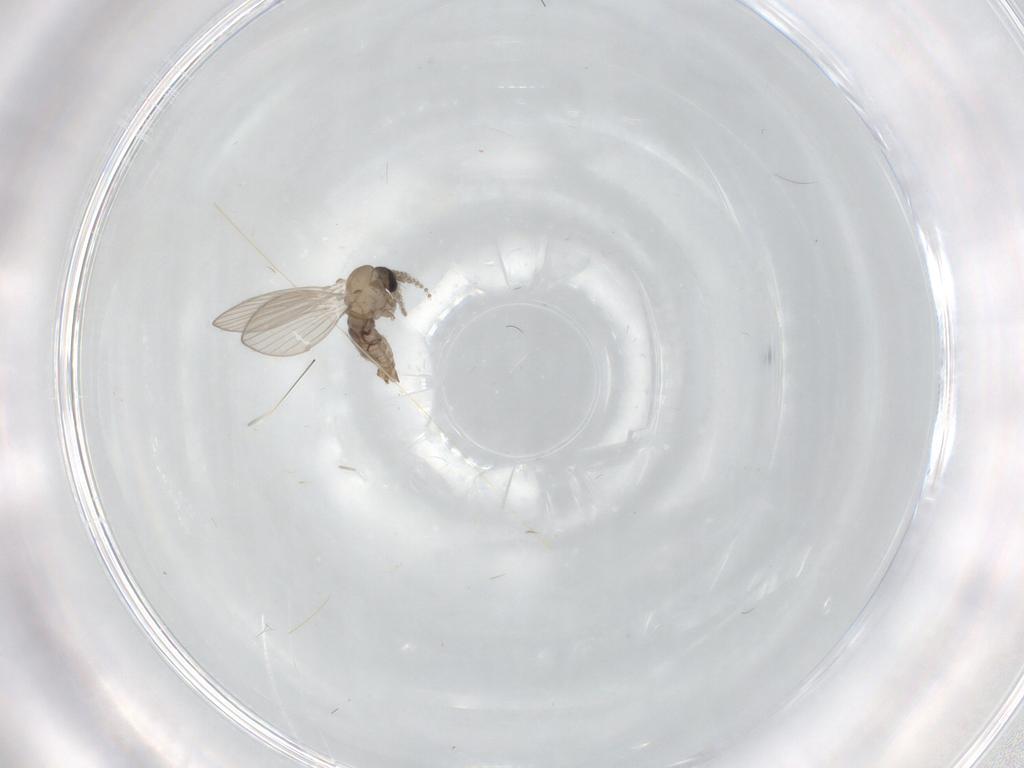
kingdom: Animalia
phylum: Arthropoda
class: Insecta
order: Diptera
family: Psychodidae
